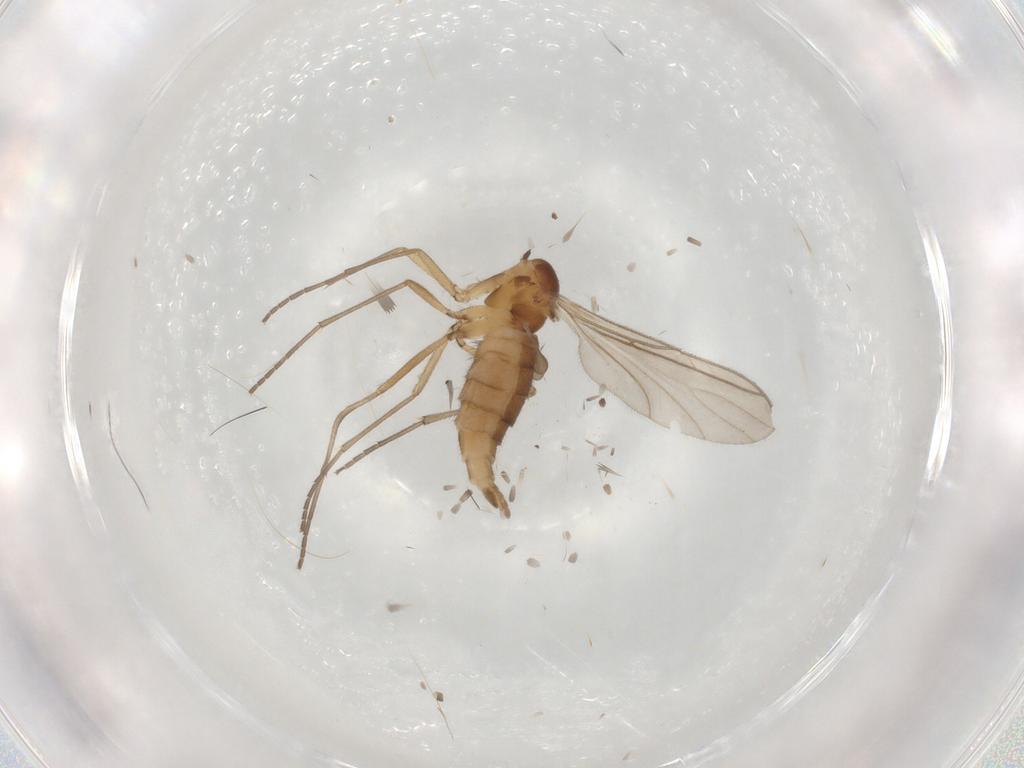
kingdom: Animalia
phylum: Arthropoda
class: Insecta
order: Diptera
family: Sciaridae
